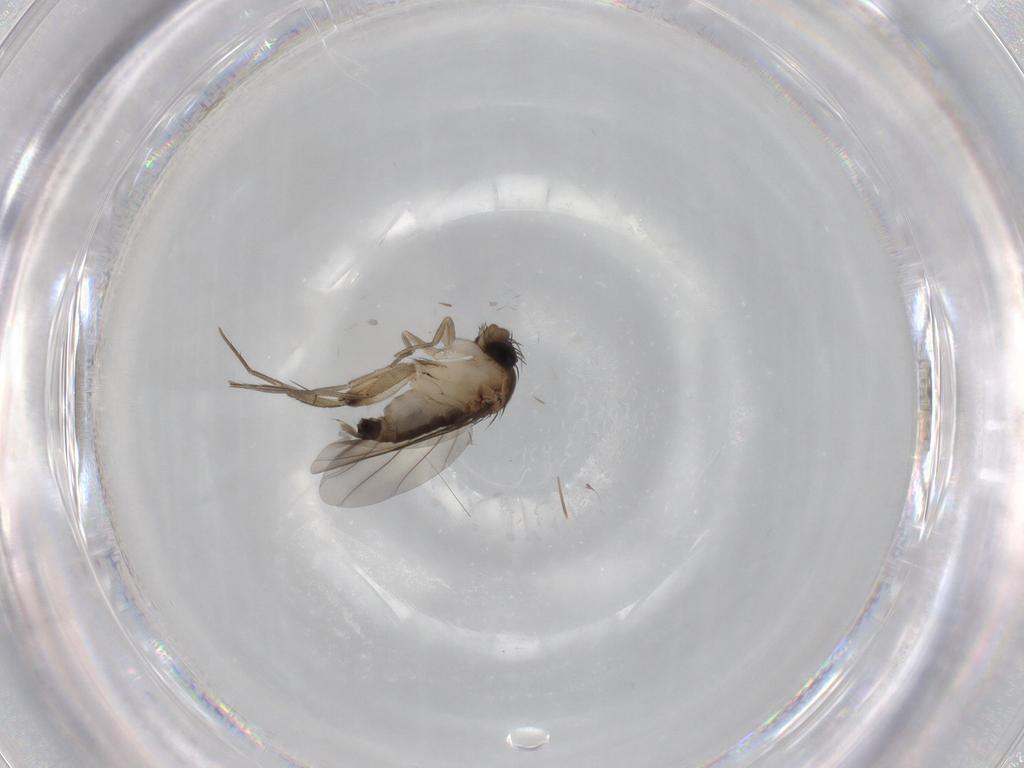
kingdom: Animalia
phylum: Arthropoda
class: Insecta
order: Diptera
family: Phoridae
